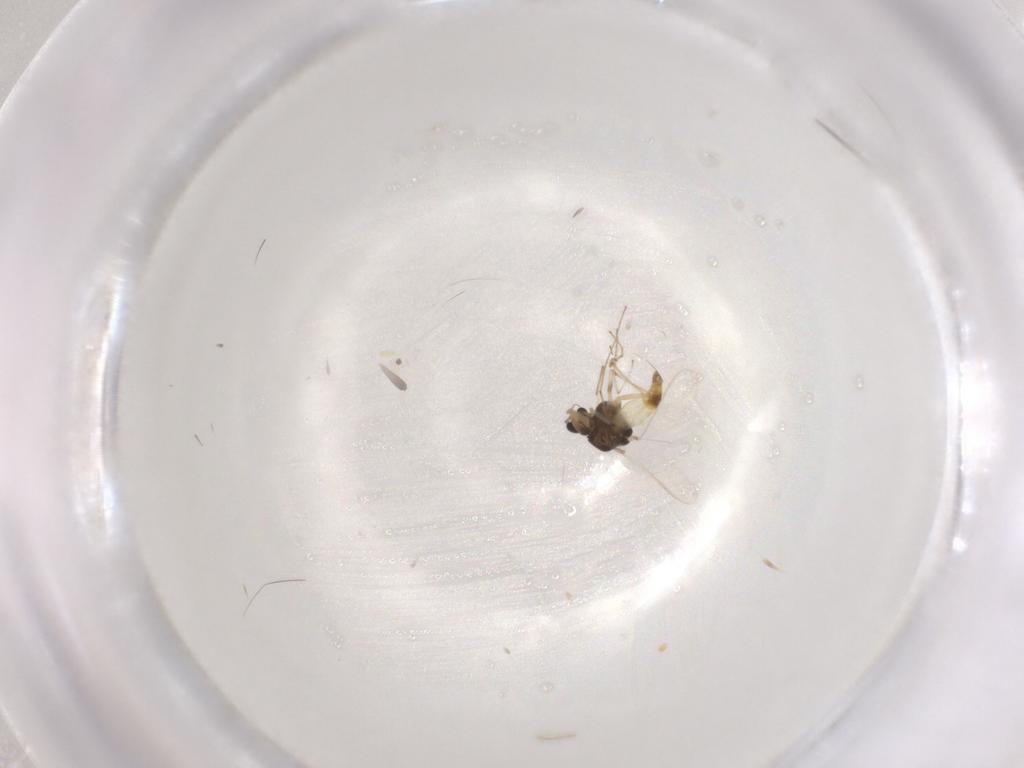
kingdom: Animalia
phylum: Arthropoda
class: Insecta
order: Diptera
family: Chironomidae
